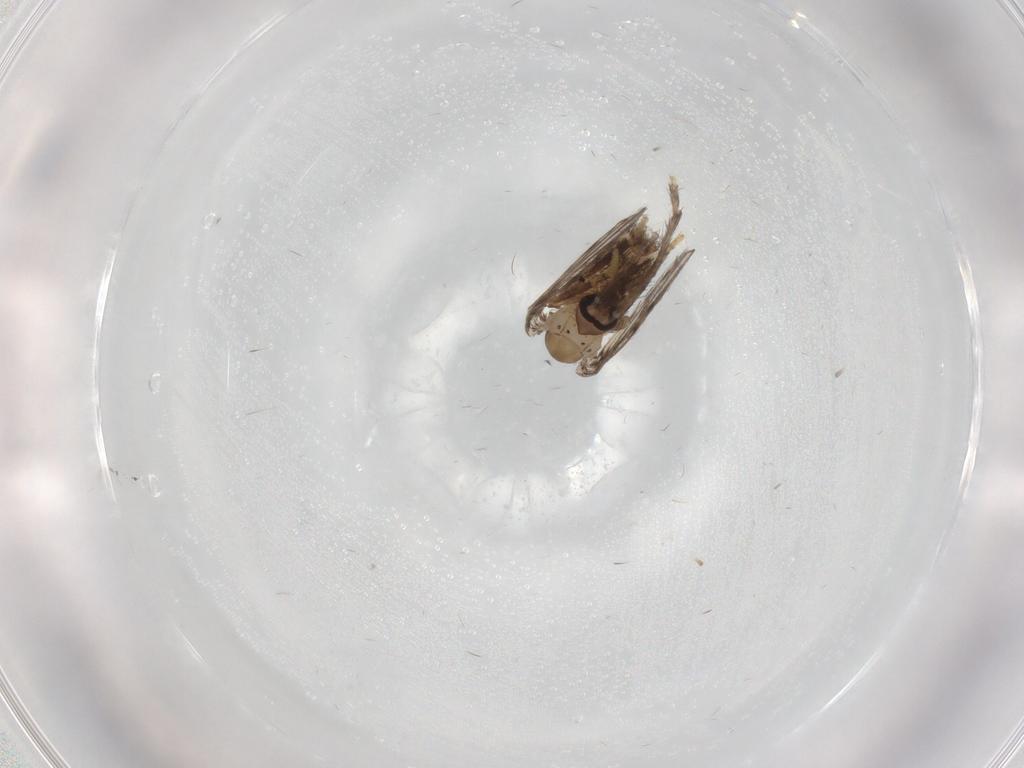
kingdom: Animalia
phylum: Arthropoda
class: Insecta
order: Diptera
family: Psychodidae
